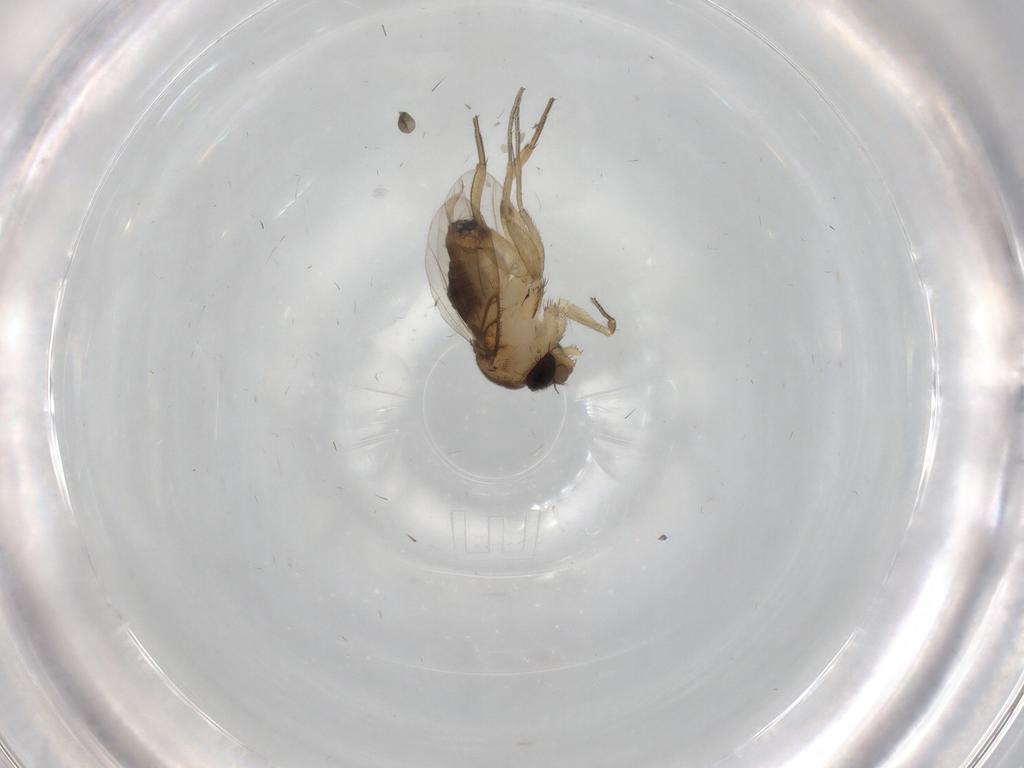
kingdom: Animalia
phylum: Arthropoda
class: Insecta
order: Diptera
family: Phoridae
